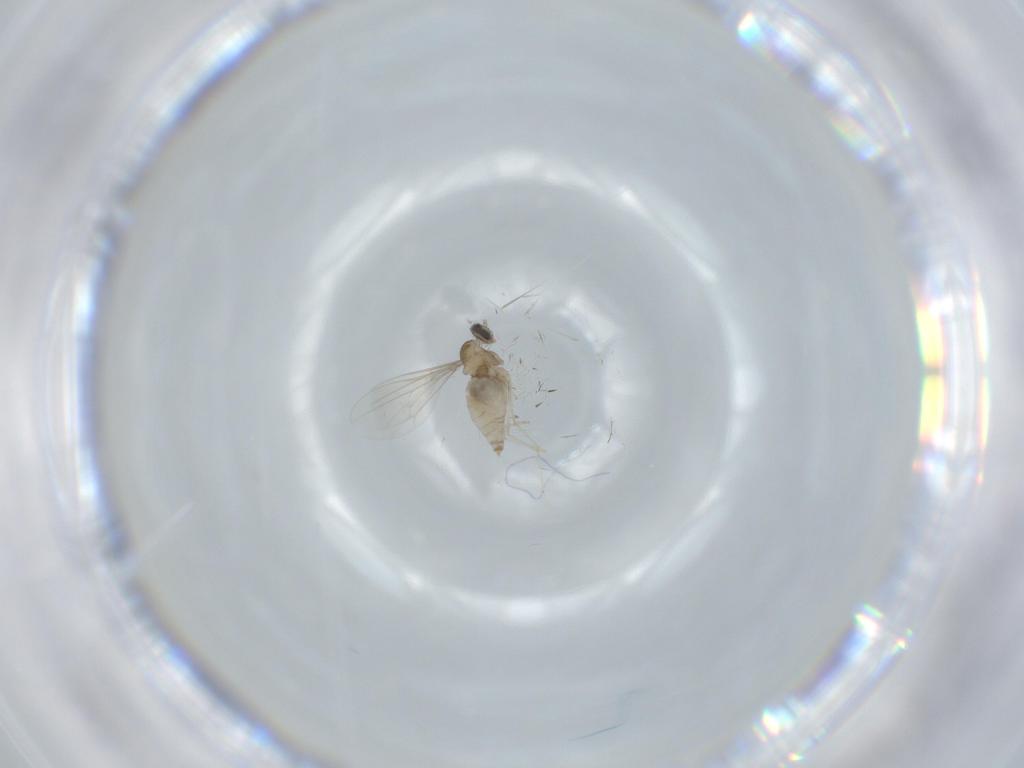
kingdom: Animalia
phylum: Arthropoda
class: Insecta
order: Diptera
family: Cecidomyiidae
